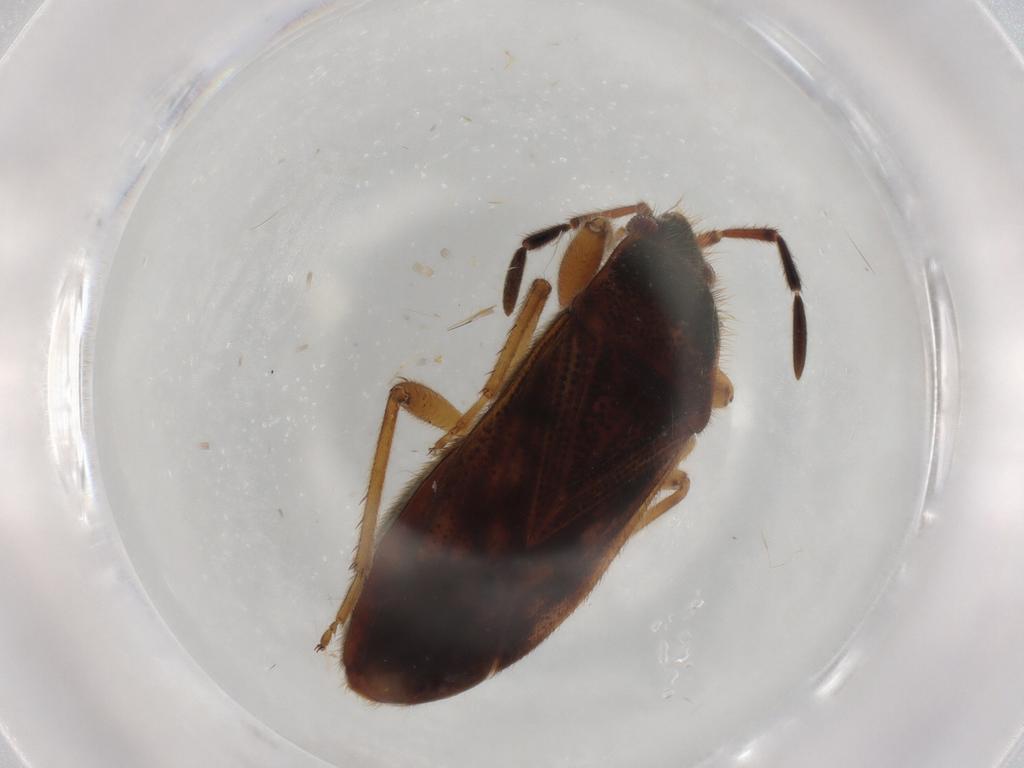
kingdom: Animalia
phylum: Arthropoda
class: Insecta
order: Hemiptera
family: Rhyparochromidae
